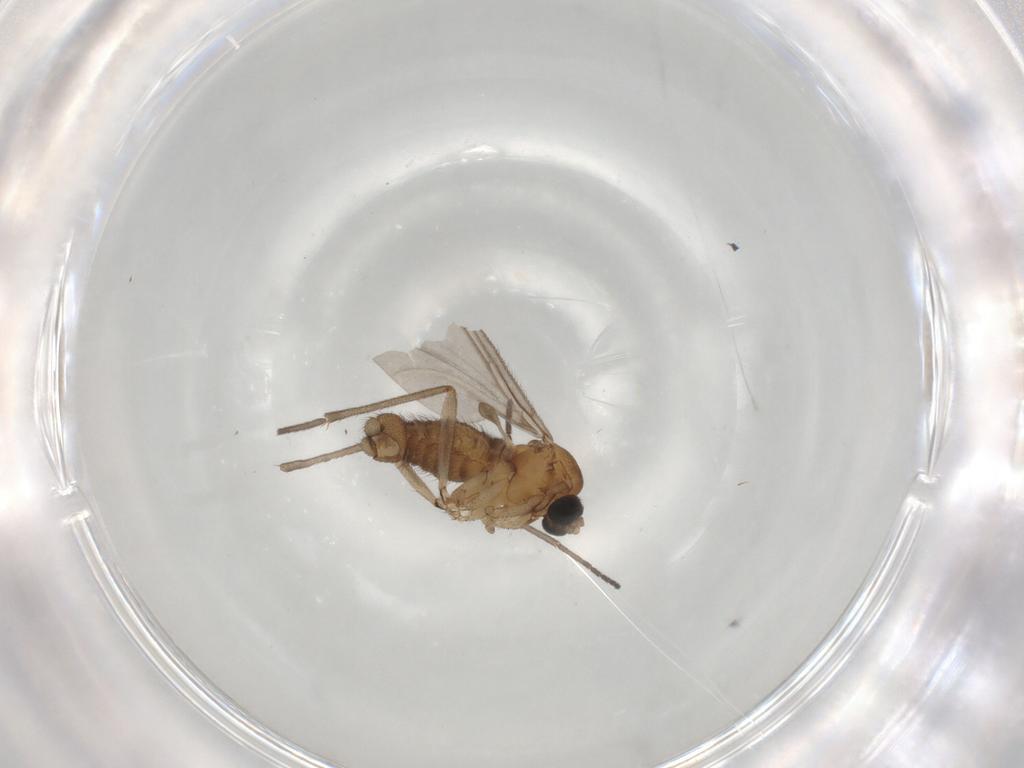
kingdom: Animalia
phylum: Arthropoda
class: Insecta
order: Diptera
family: Sciaridae
